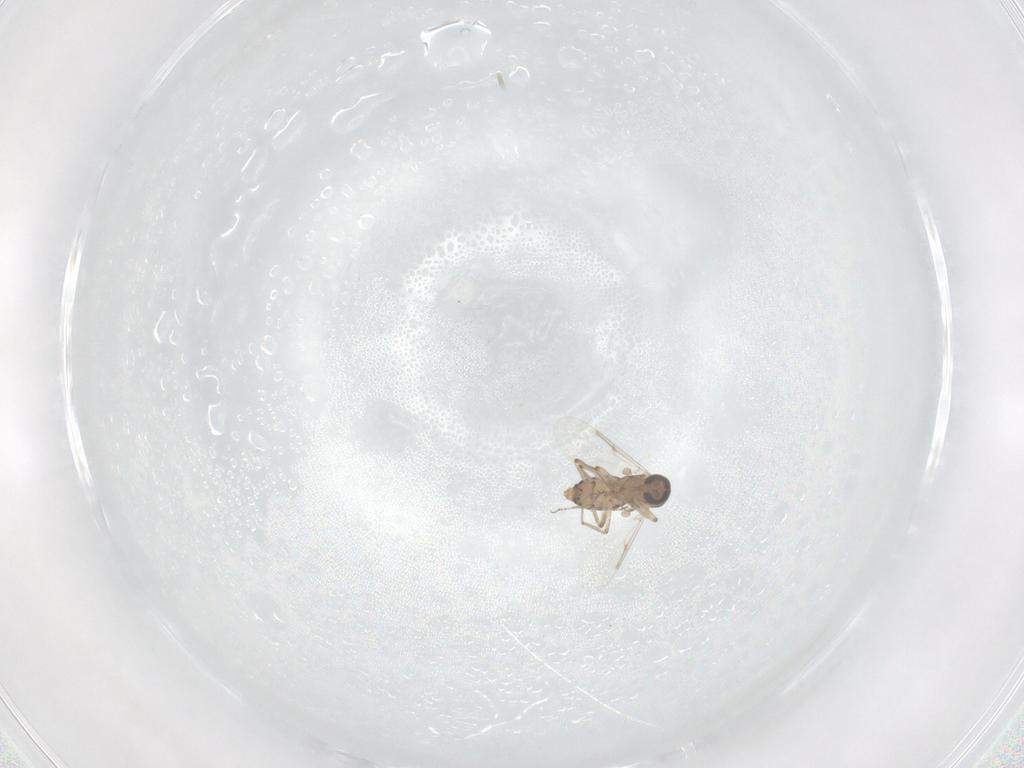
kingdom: Animalia
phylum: Arthropoda
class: Insecta
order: Diptera
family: Ceratopogonidae
